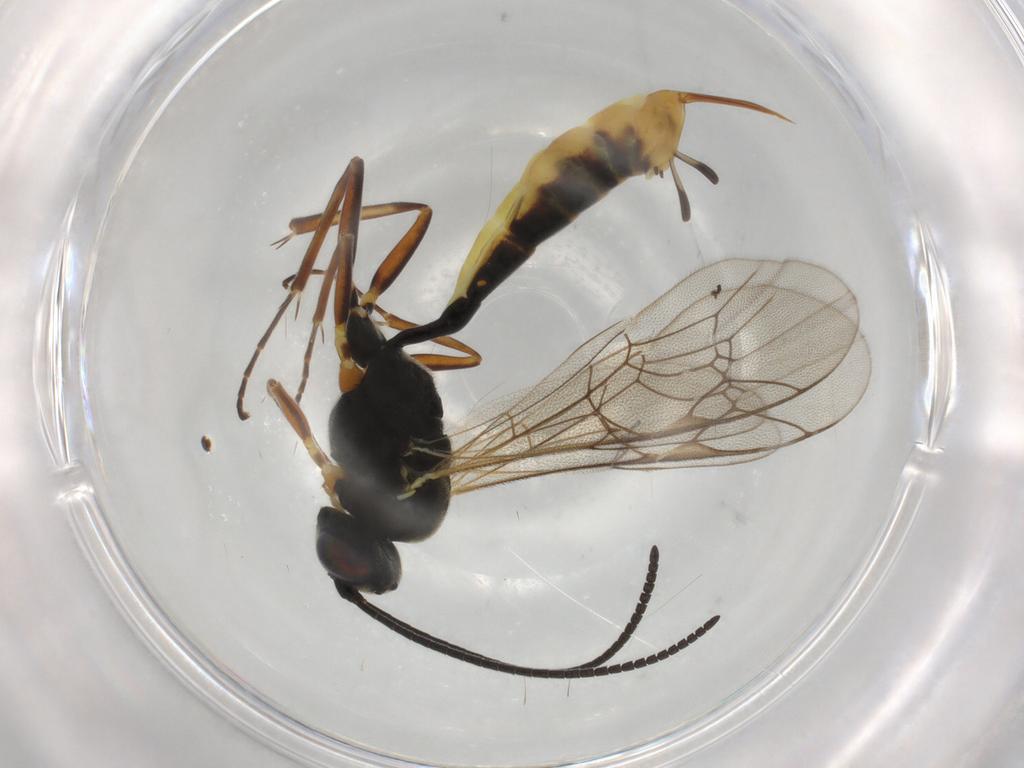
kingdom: Animalia
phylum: Arthropoda
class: Insecta
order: Hymenoptera
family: Ichneumonidae
